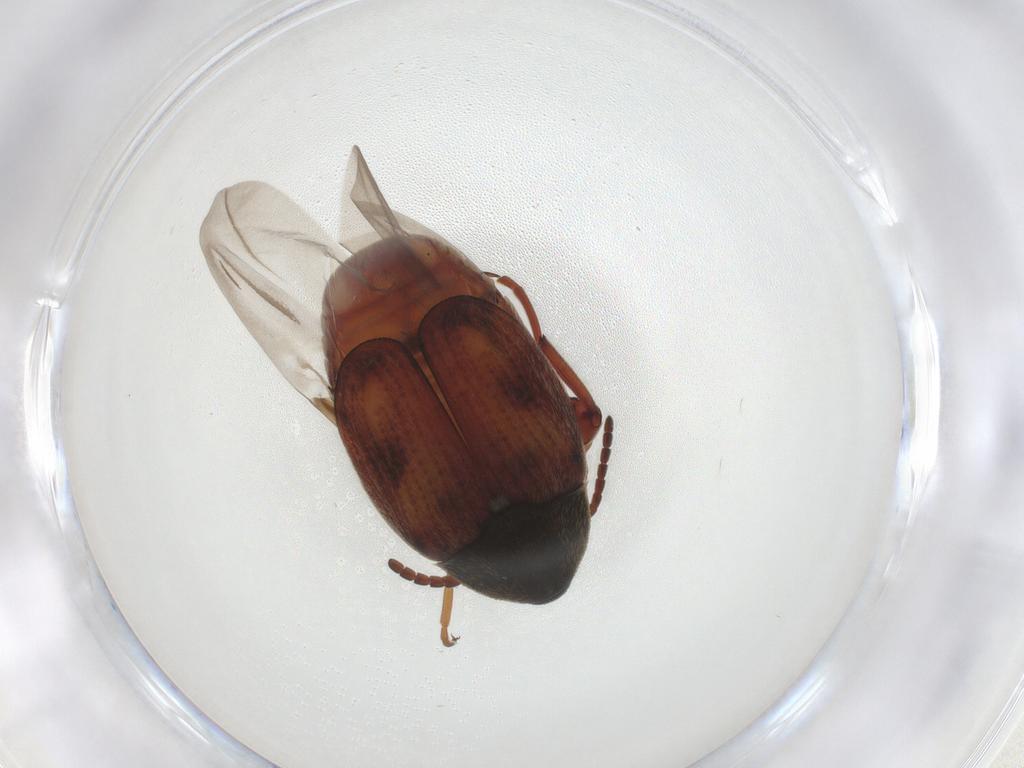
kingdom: Animalia
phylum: Arthropoda
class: Insecta
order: Coleoptera
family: Chrysomelidae
